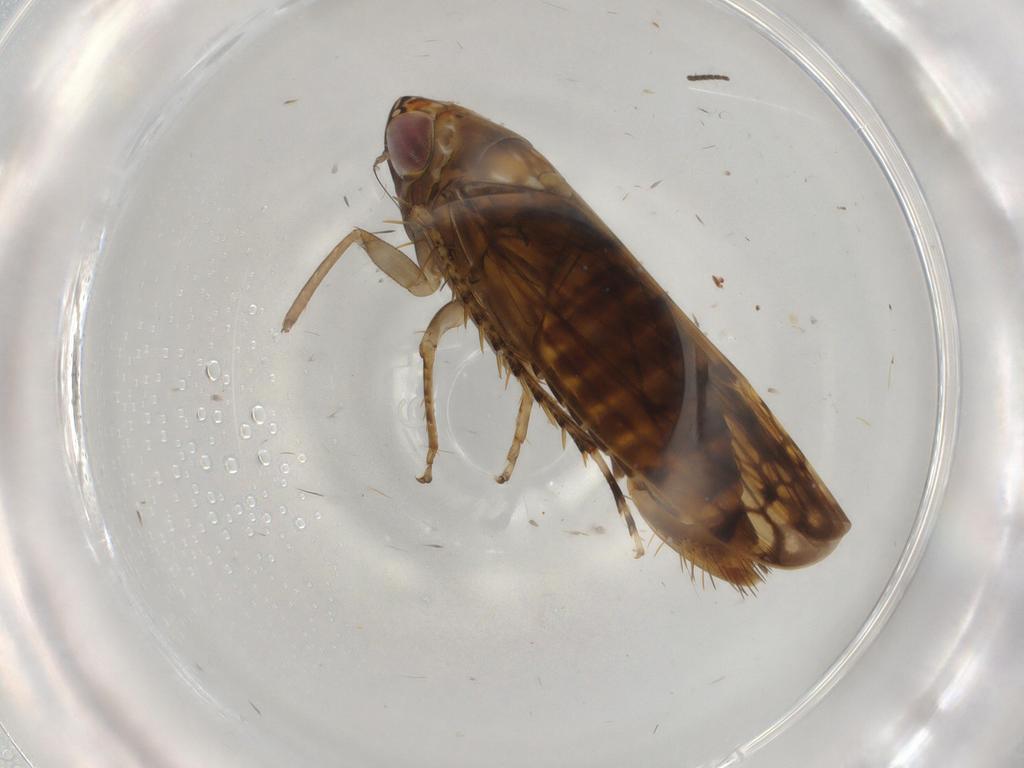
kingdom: Animalia
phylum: Arthropoda
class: Insecta
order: Hemiptera
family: Cicadellidae
